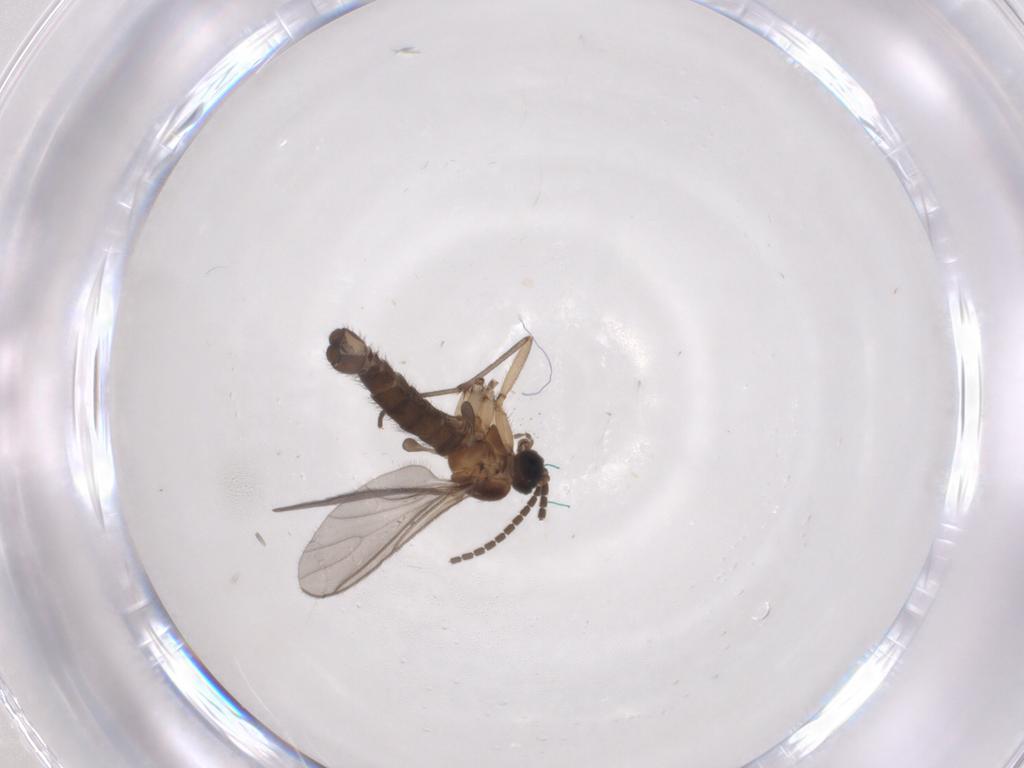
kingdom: Animalia
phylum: Arthropoda
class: Insecta
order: Diptera
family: Sciaridae
